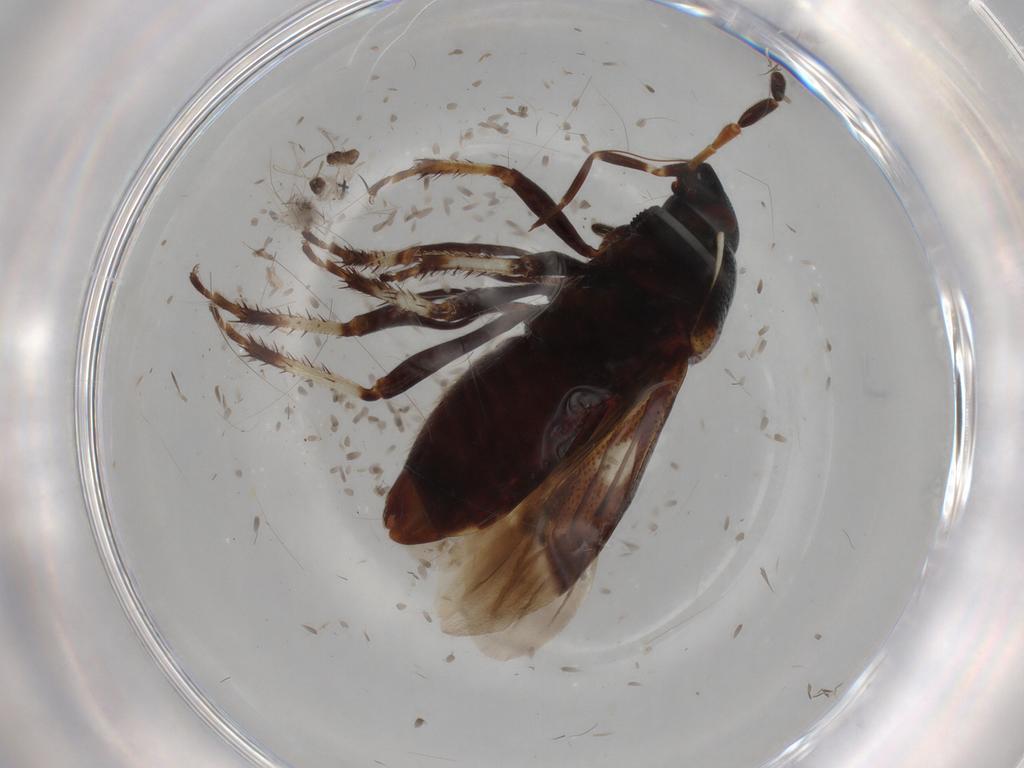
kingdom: Animalia
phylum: Arthropoda
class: Insecta
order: Hemiptera
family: Cydnidae
